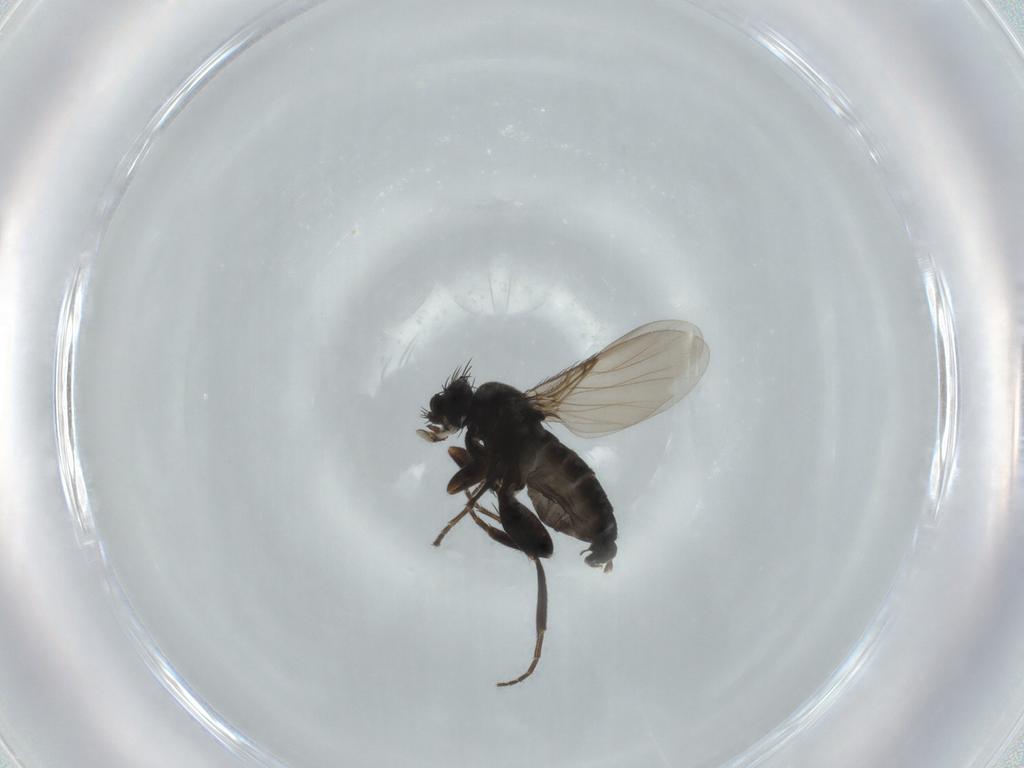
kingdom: Animalia
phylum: Arthropoda
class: Insecta
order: Diptera
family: Phoridae
